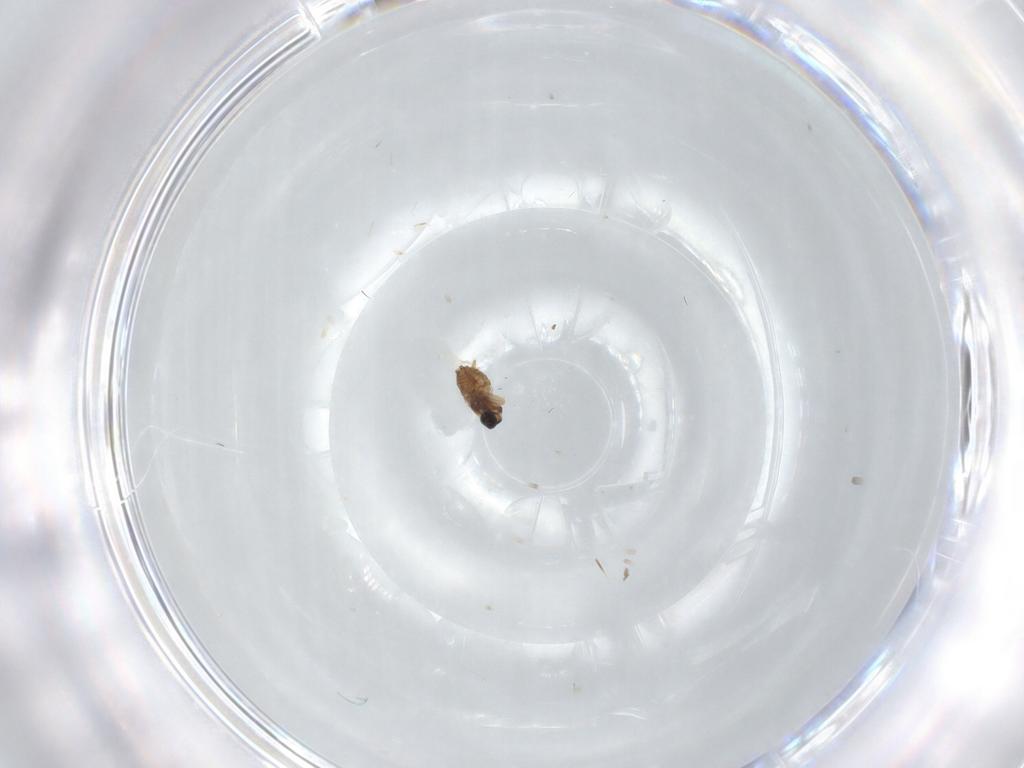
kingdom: Animalia
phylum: Arthropoda
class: Insecta
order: Diptera
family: Cecidomyiidae
